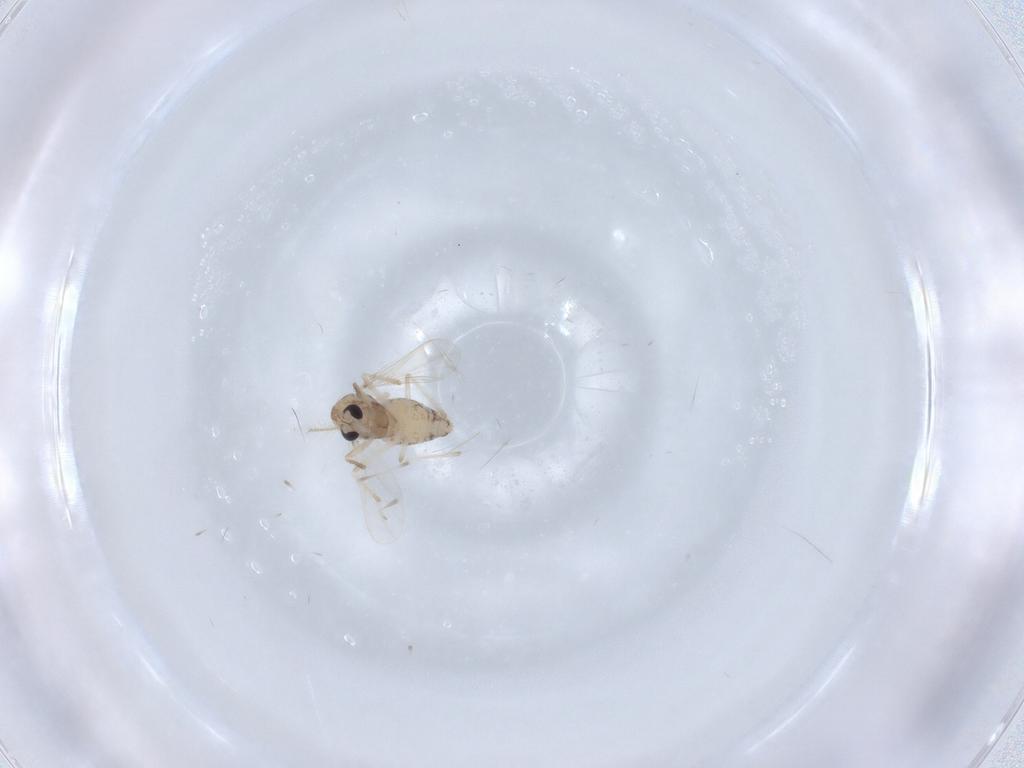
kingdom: Animalia
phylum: Arthropoda
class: Insecta
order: Diptera
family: Chironomidae
